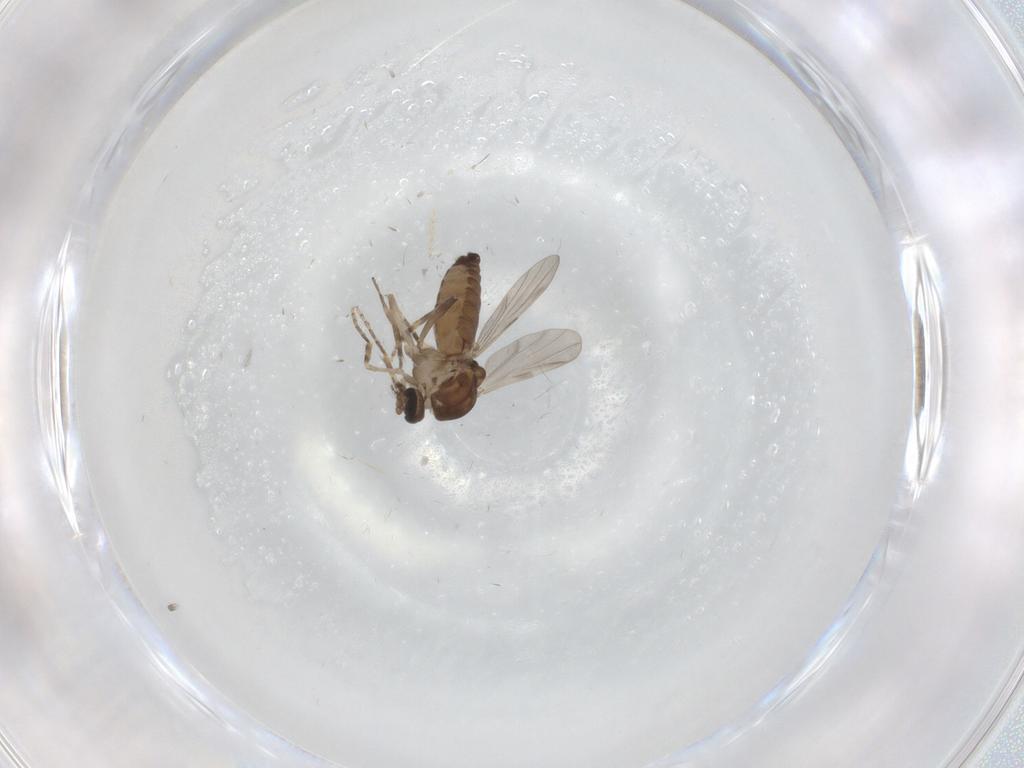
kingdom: Animalia
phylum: Arthropoda
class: Insecta
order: Diptera
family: Ceratopogonidae
